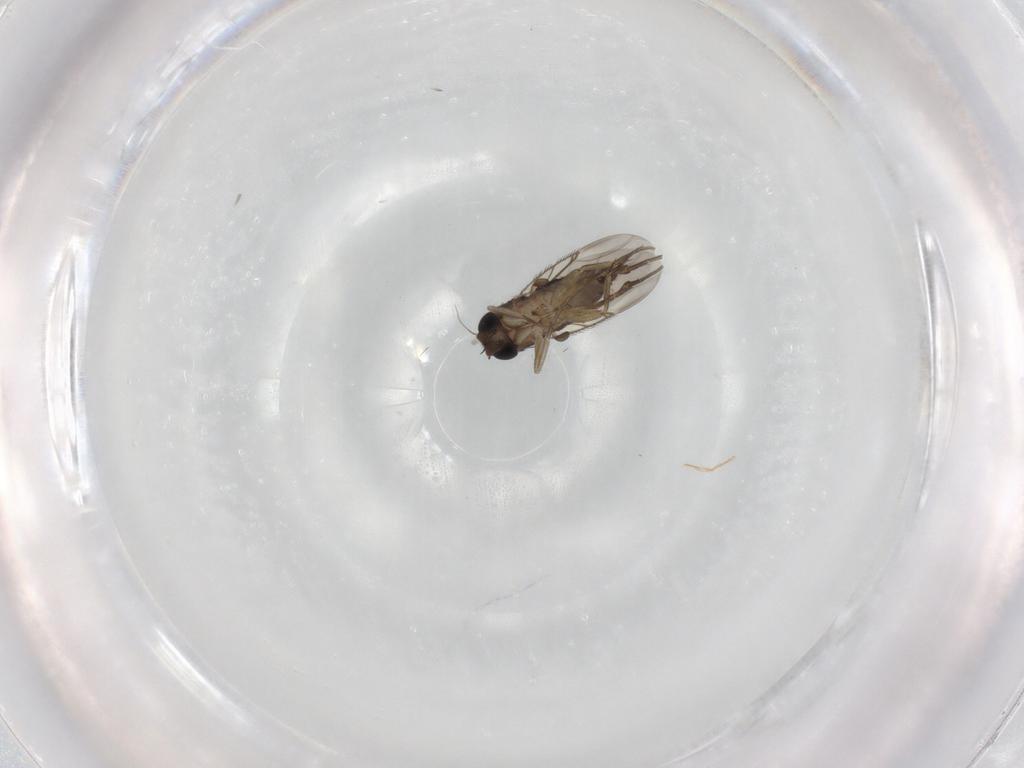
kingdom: Animalia
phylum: Arthropoda
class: Insecta
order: Diptera
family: Phoridae
